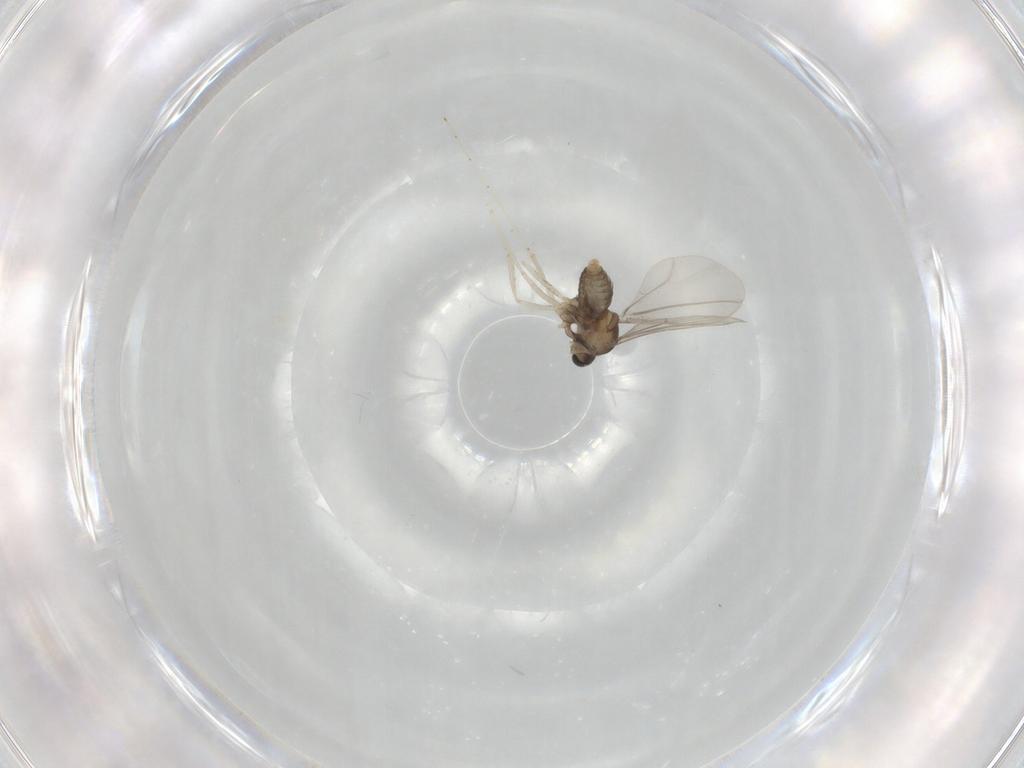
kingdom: Animalia
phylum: Arthropoda
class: Insecta
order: Diptera
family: Cecidomyiidae
